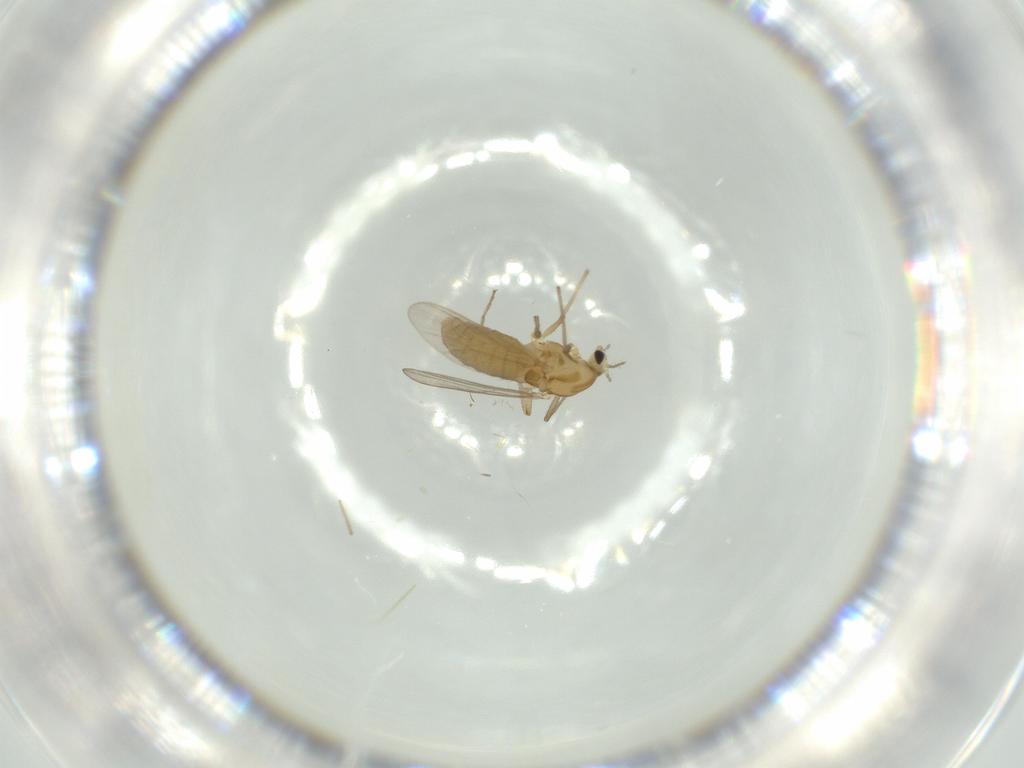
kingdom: Animalia
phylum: Arthropoda
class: Insecta
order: Diptera
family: Chironomidae
